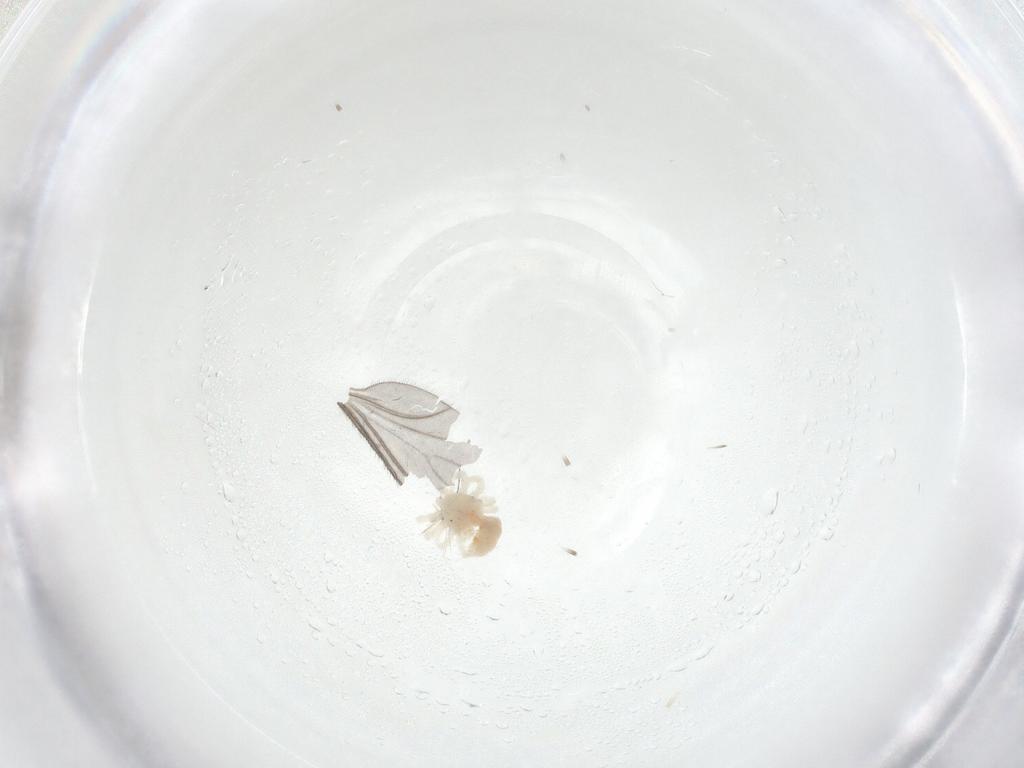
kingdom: Animalia
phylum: Arthropoda
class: Arachnida
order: Trombidiformes
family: Anystidae
